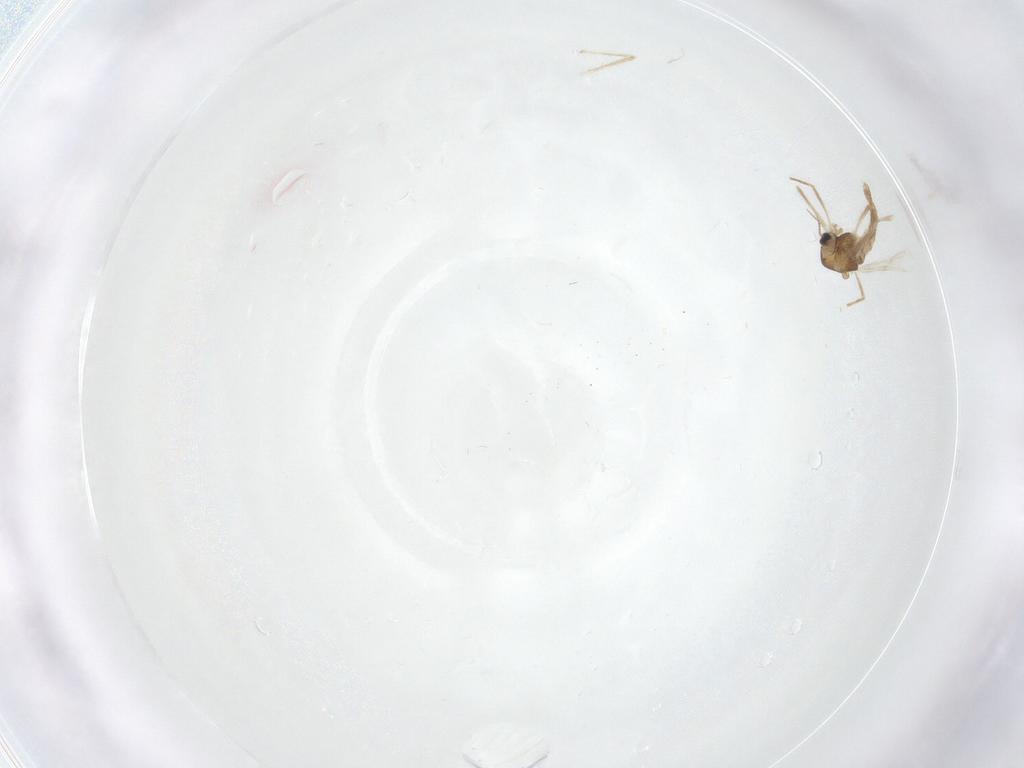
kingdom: Animalia
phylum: Arthropoda
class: Insecta
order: Diptera
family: Chironomidae
